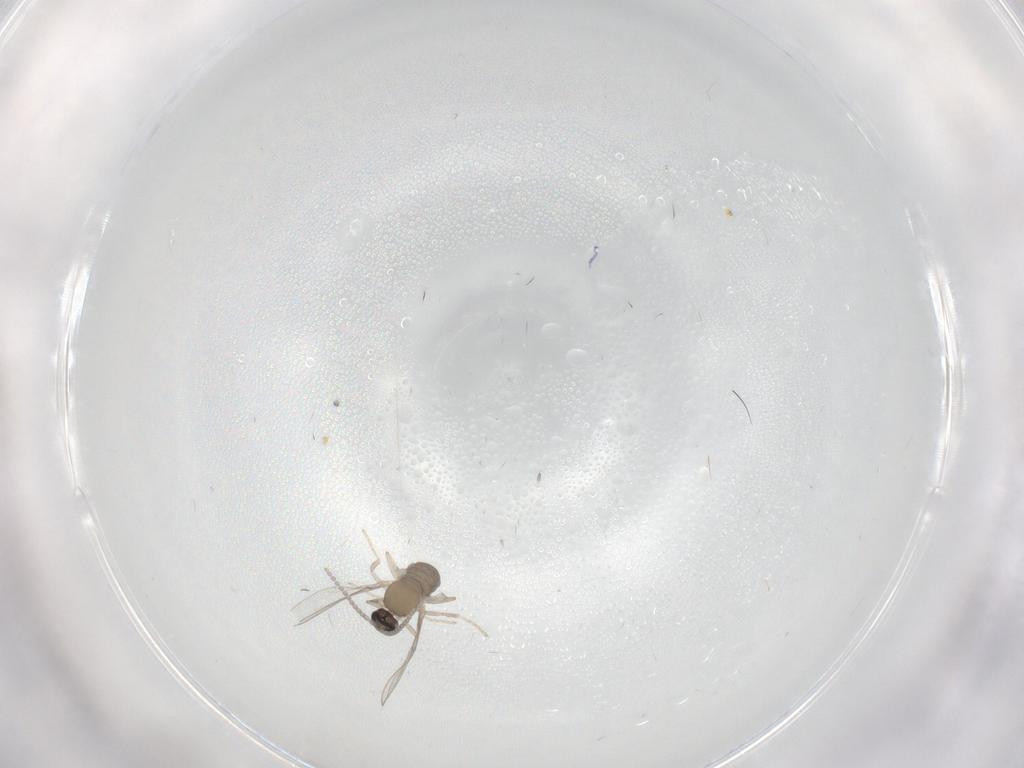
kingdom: Animalia
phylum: Arthropoda
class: Insecta
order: Diptera
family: Cecidomyiidae
